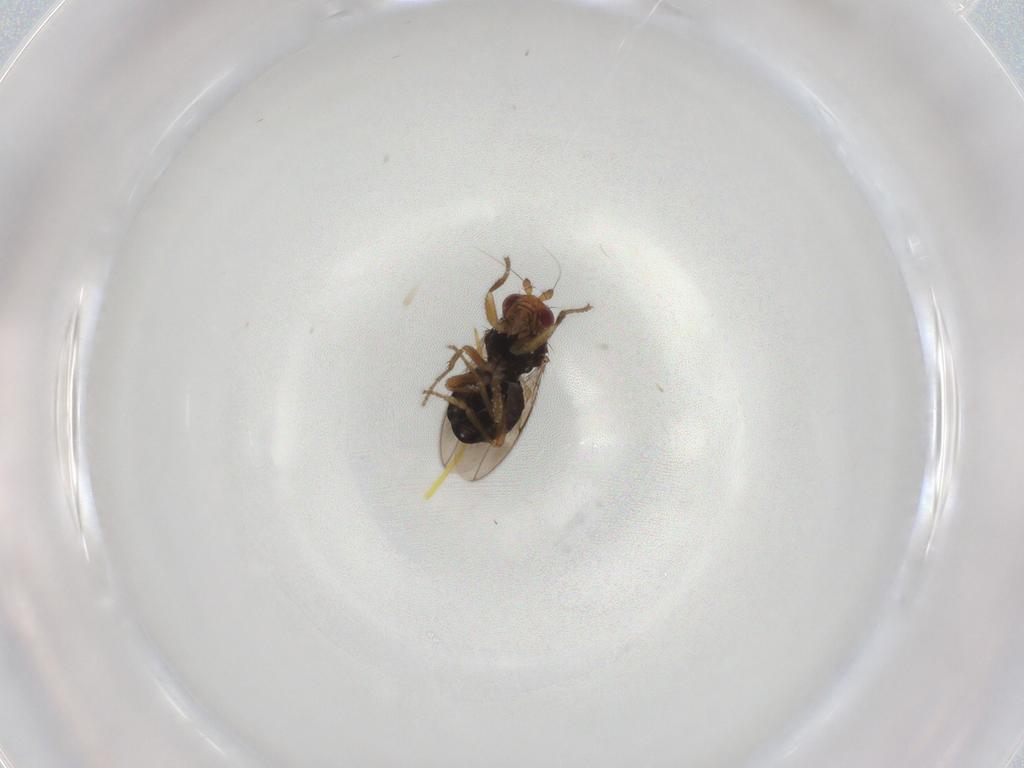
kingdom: Animalia
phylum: Arthropoda
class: Insecta
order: Diptera
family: Sphaeroceridae
